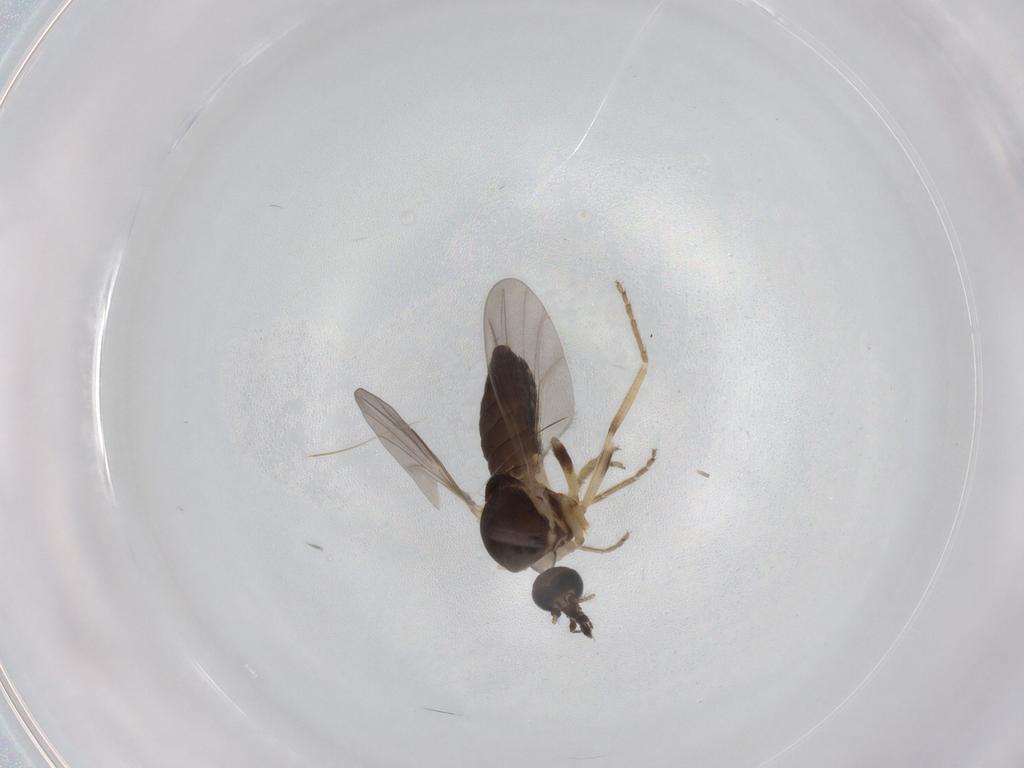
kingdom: Animalia
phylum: Arthropoda
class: Insecta
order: Diptera
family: Ceratopogonidae
